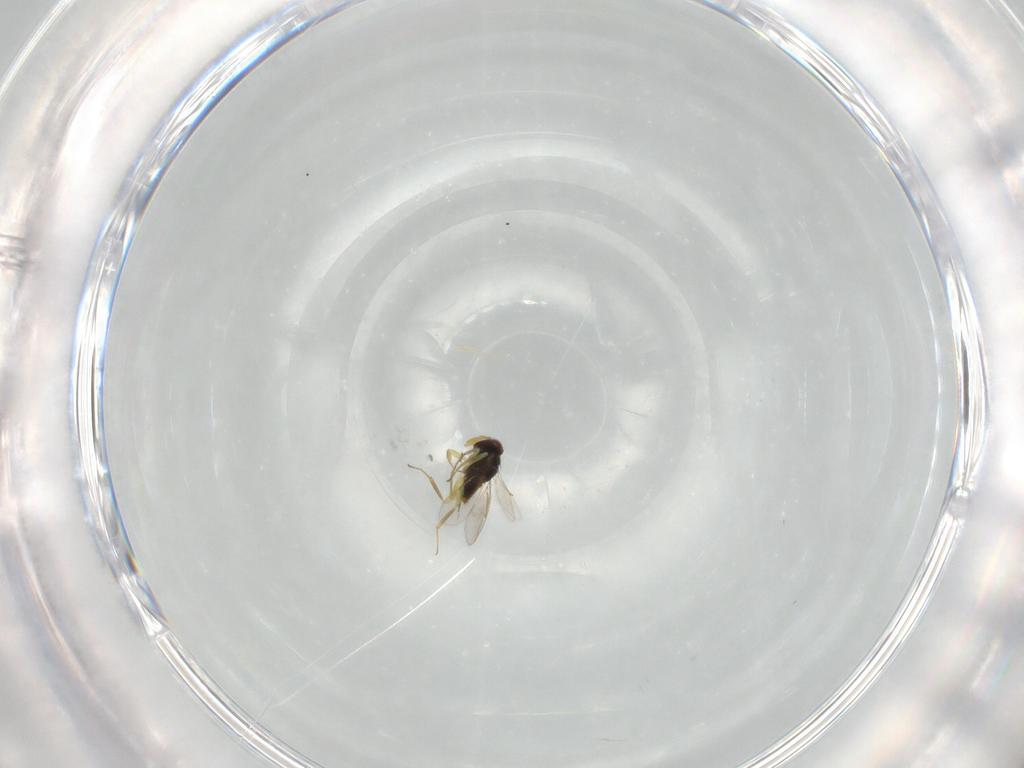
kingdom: Animalia
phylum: Arthropoda
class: Insecta
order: Hymenoptera
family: Aphelinidae
